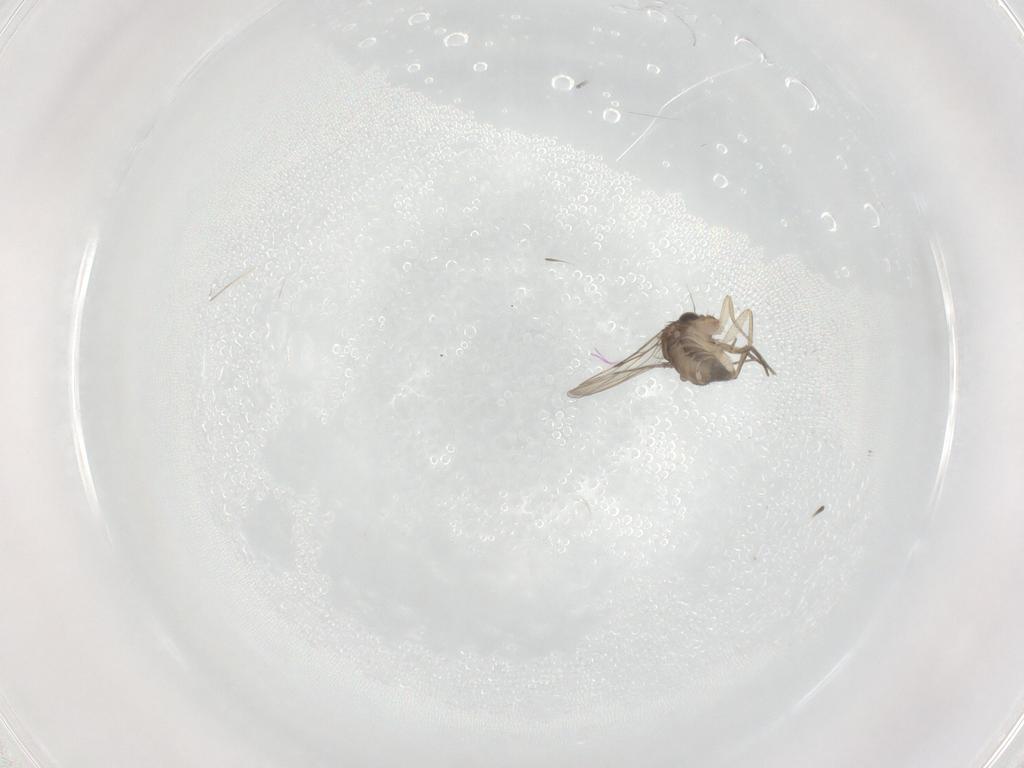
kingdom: Animalia
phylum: Arthropoda
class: Insecta
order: Diptera
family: Phoridae
